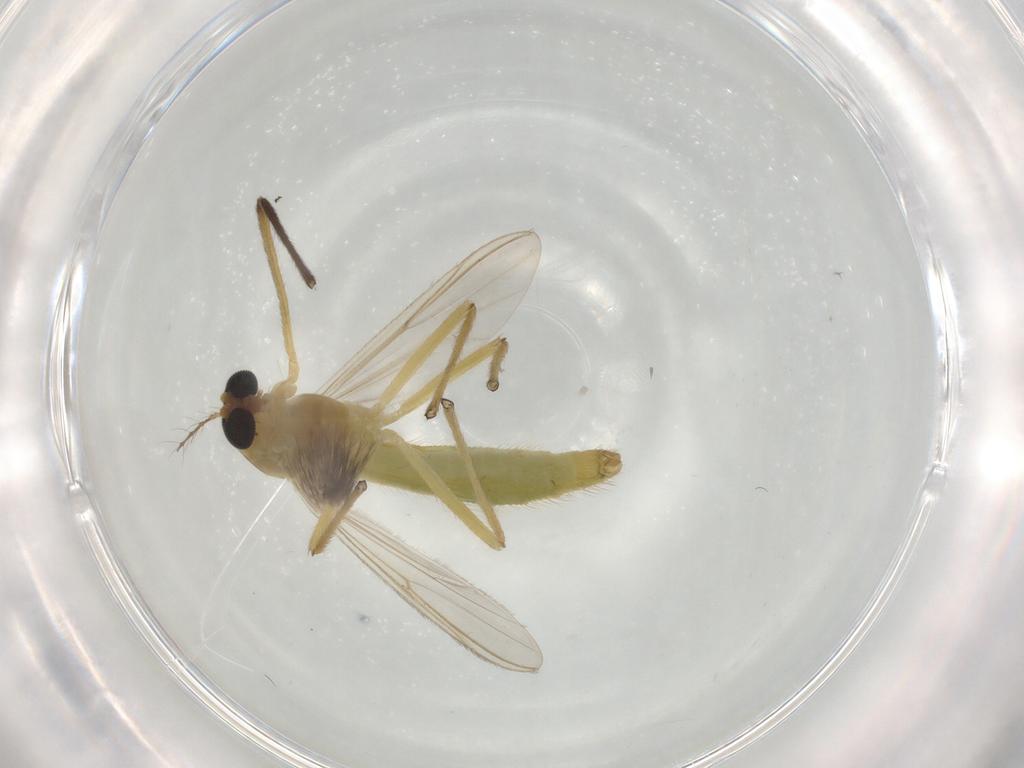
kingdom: Animalia
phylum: Arthropoda
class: Insecta
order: Diptera
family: Chironomidae
